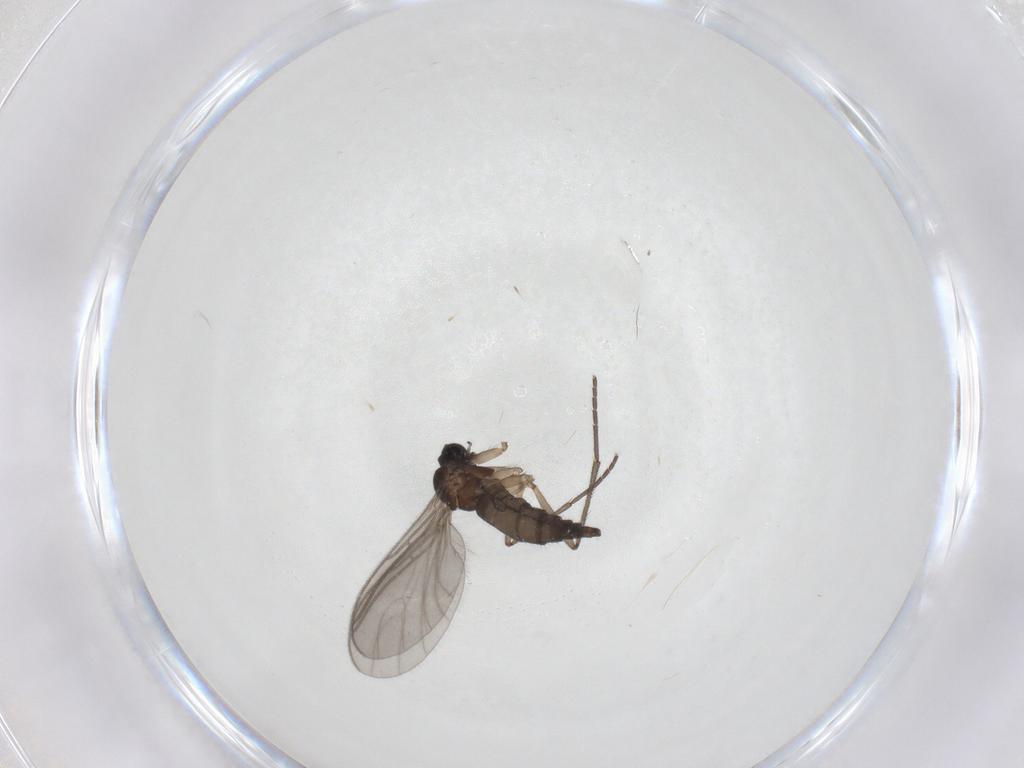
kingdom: Animalia
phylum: Arthropoda
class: Insecta
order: Diptera
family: Sciaridae
